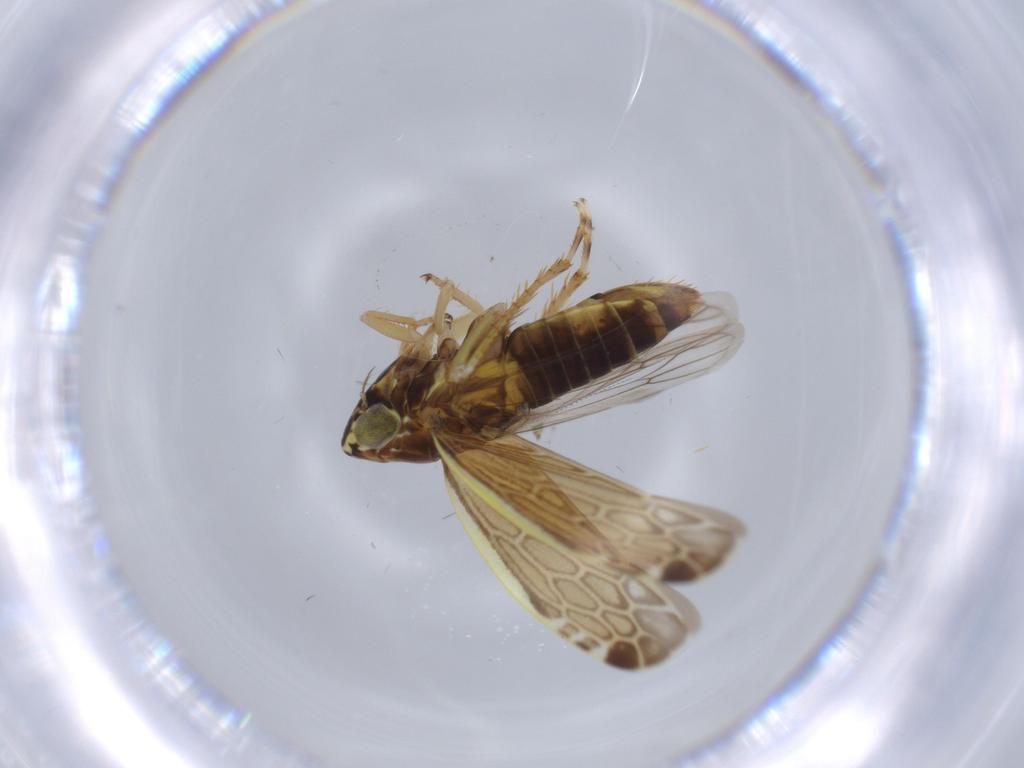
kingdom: Animalia
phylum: Arthropoda
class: Insecta
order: Hemiptera
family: Cicadellidae
